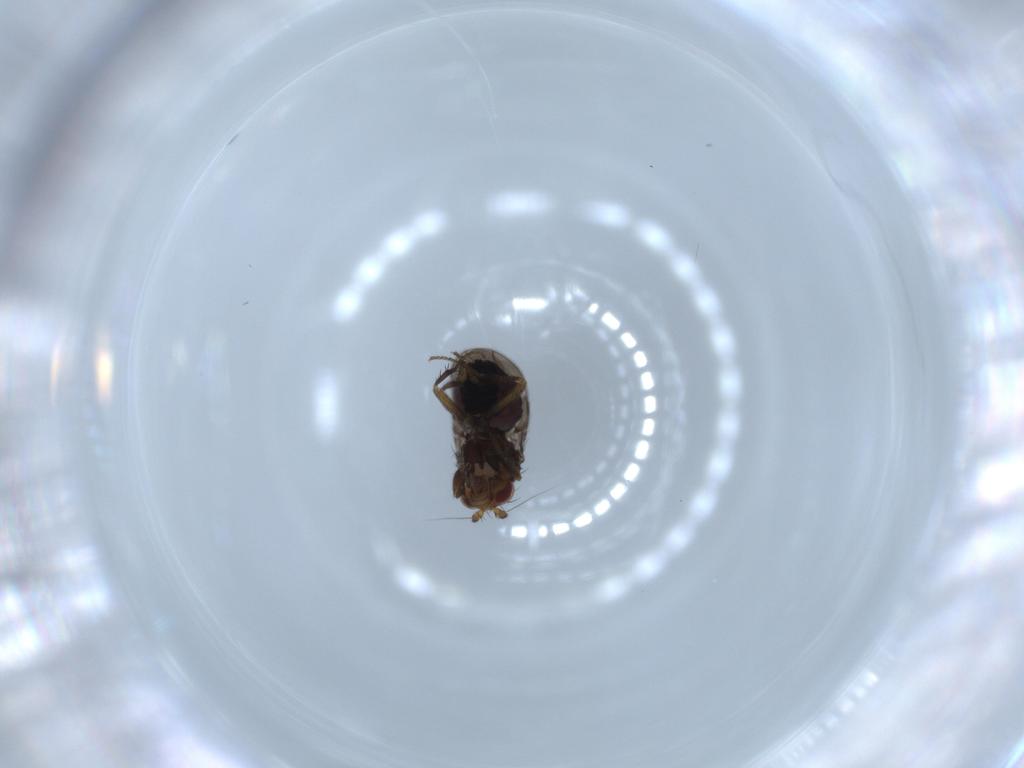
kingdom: Animalia
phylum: Arthropoda
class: Insecta
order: Diptera
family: Sphaeroceridae
